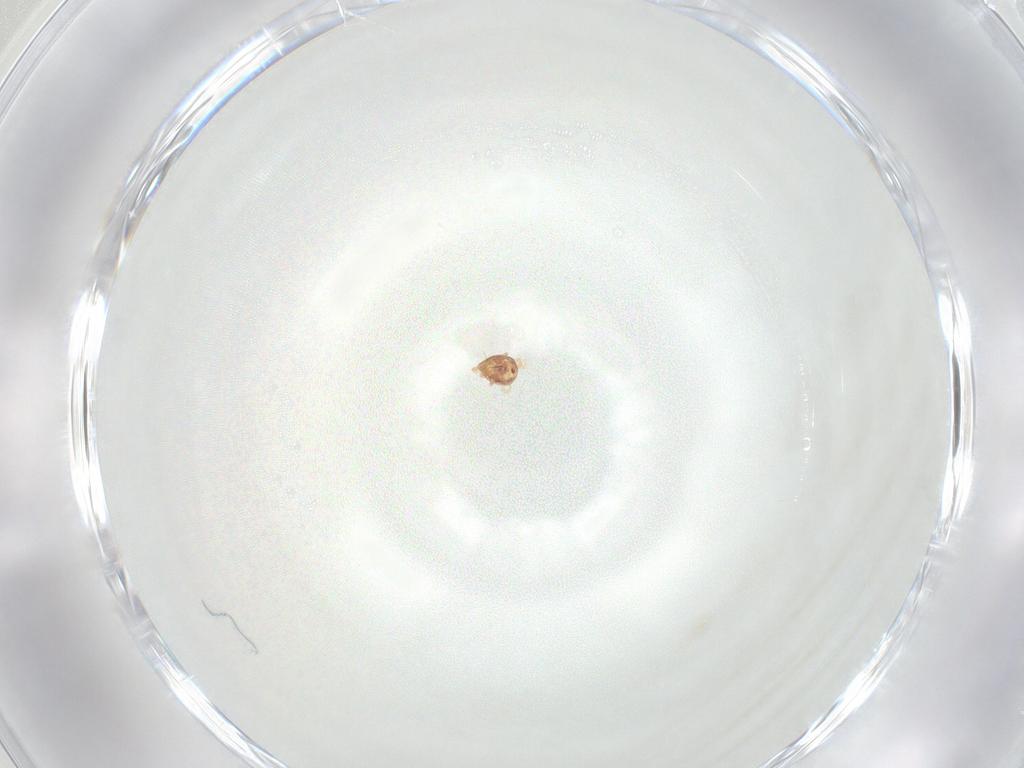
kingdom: Animalia
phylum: Arthropoda
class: Arachnida
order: Mesostigmata
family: Phytoseiidae
